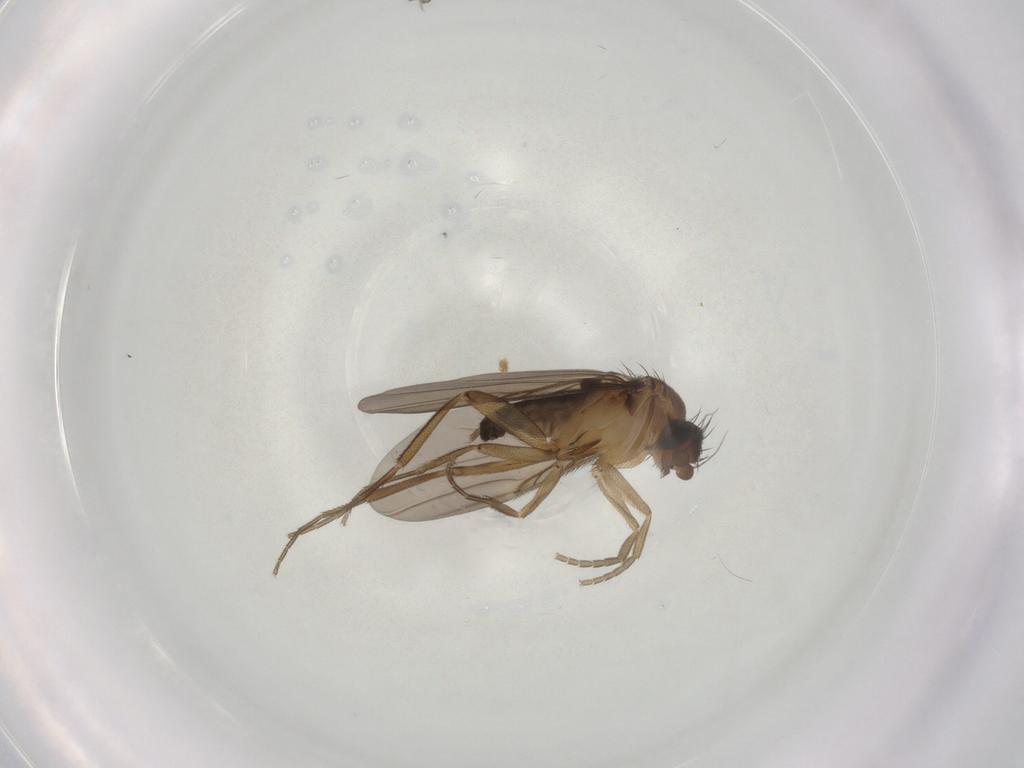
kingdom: Animalia
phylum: Arthropoda
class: Insecta
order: Diptera
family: Phoridae
